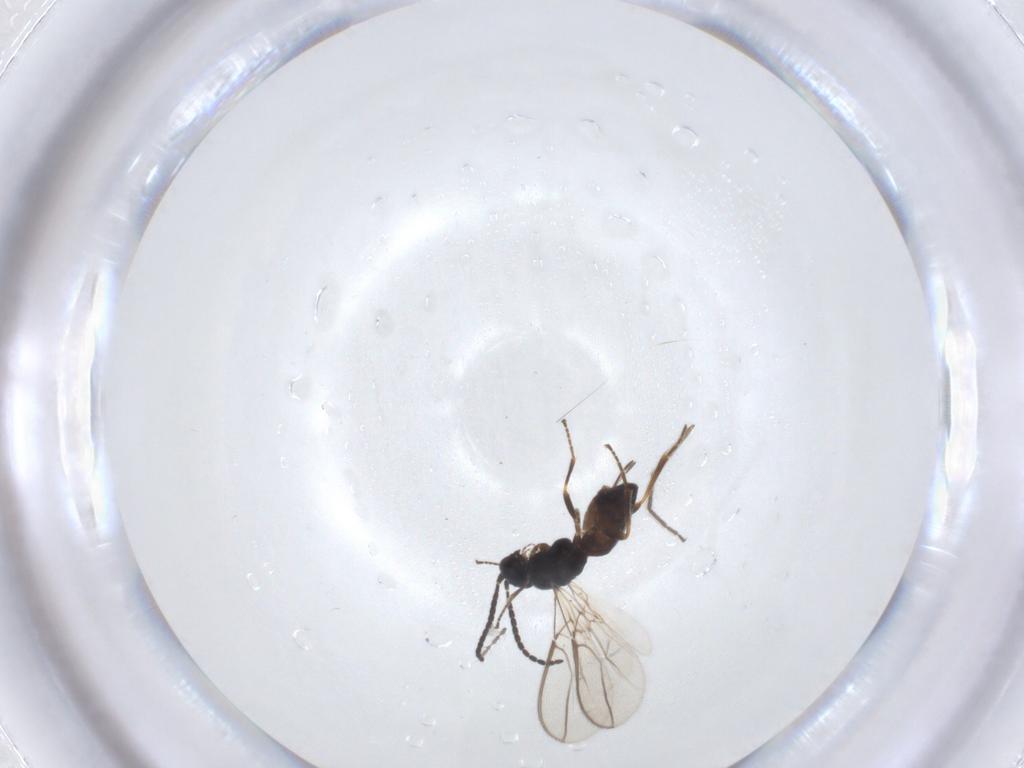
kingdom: Animalia
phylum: Arthropoda
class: Insecta
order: Hymenoptera
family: Braconidae
